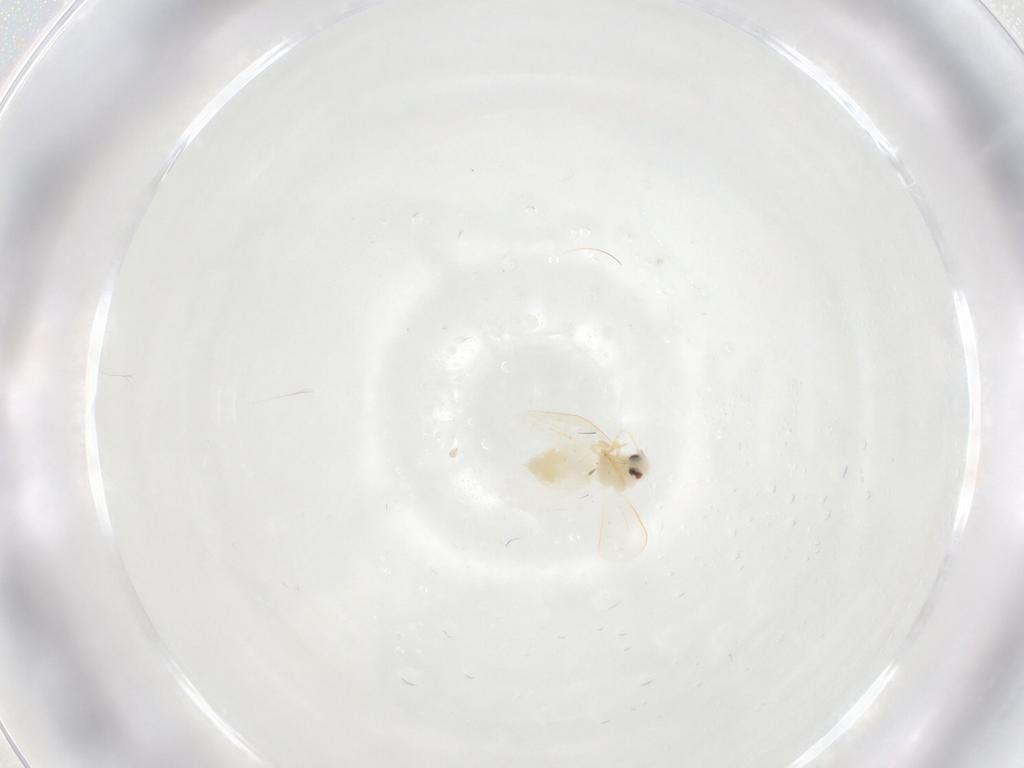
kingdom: Animalia
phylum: Arthropoda
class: Insecta
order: Hemiptera
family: Aleyrodidae
